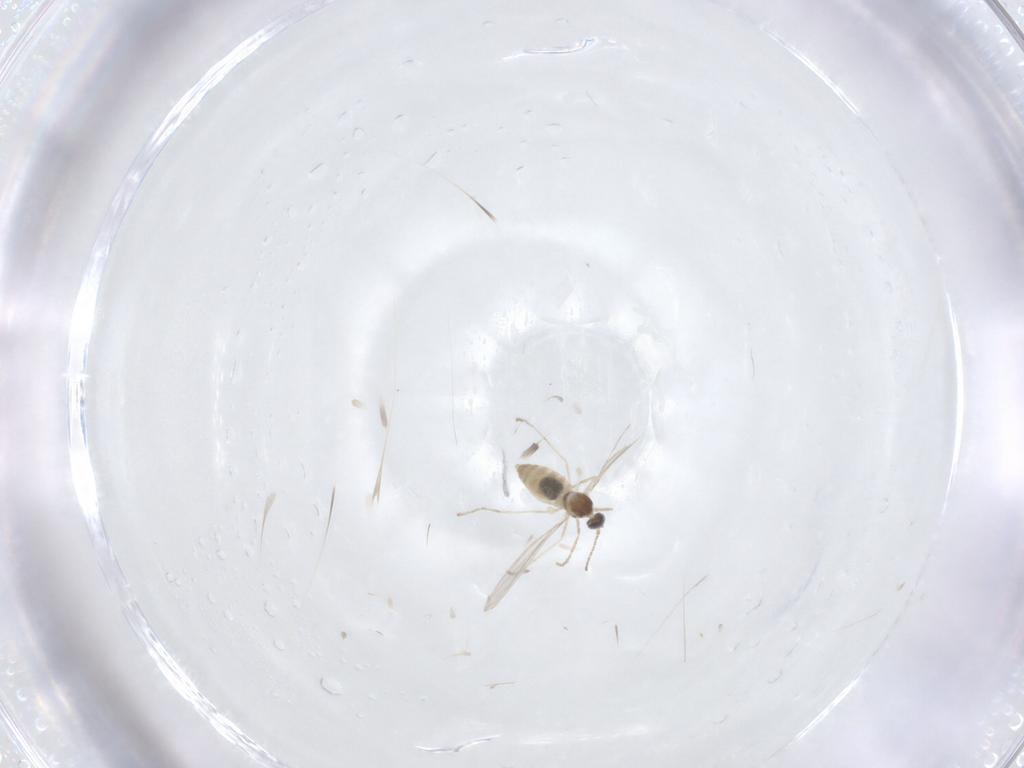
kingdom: Animalia
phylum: Arthropoda
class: Insecta
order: Diptera
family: Cecidomyiidae
